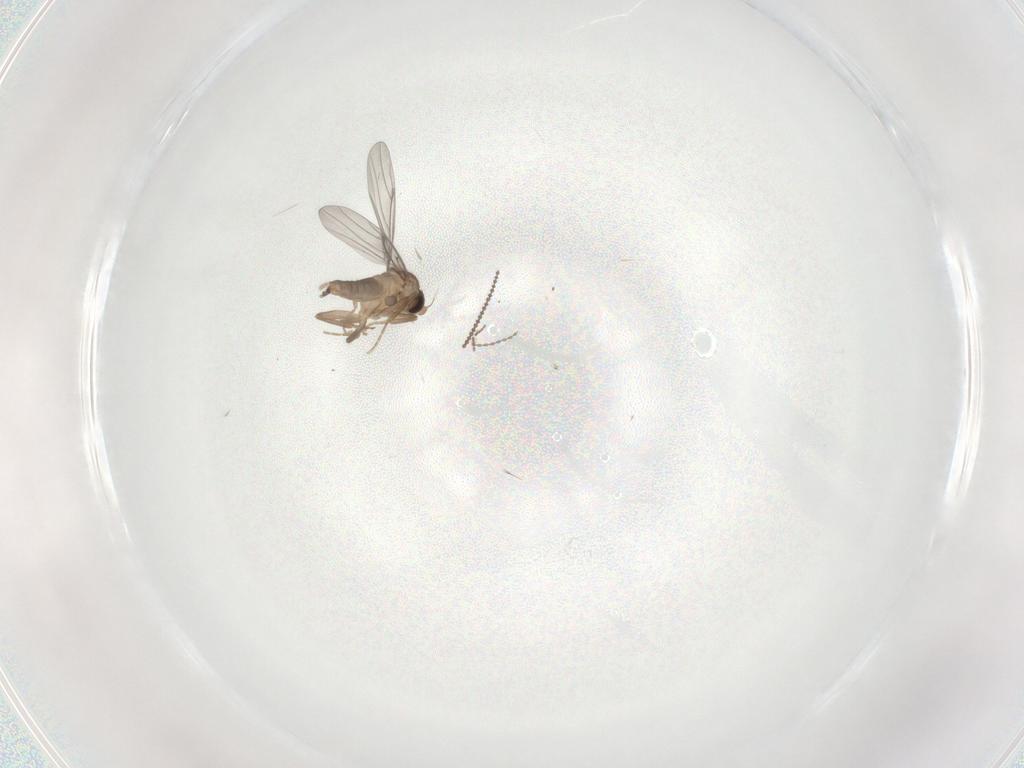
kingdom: Animalia
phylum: Arthropoda
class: Insecta
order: Diptera
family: Cecidomyiidae
